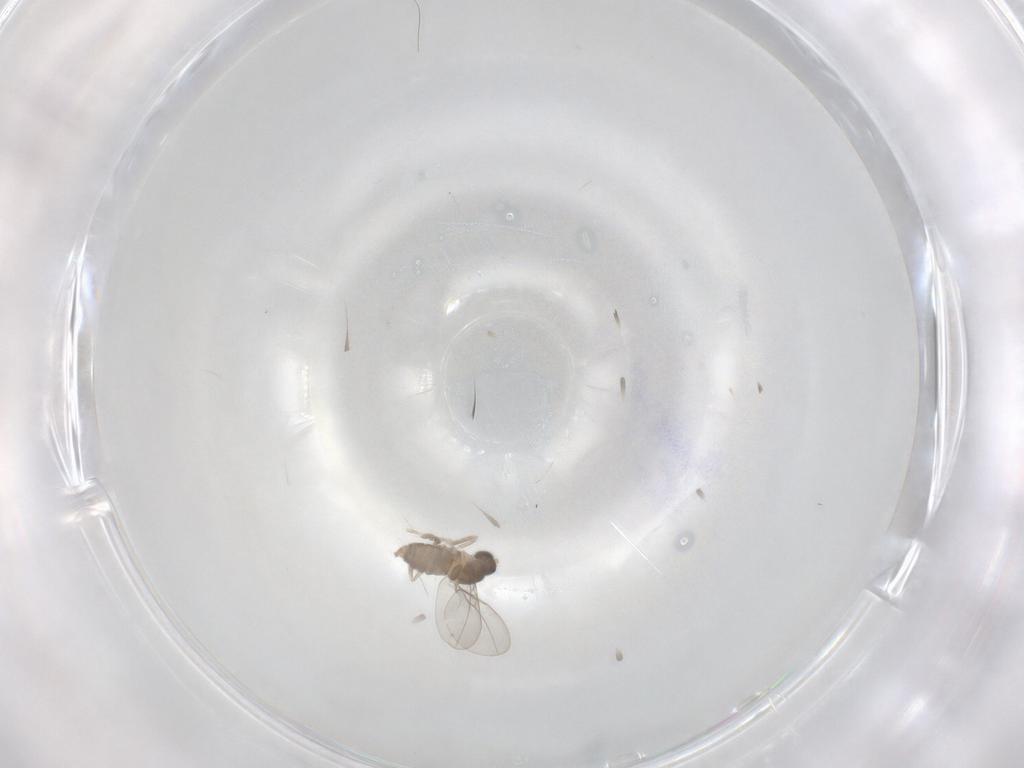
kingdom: Animalia
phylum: Arthropoda
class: Insecta
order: Diptera
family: Cecidomyiidae
